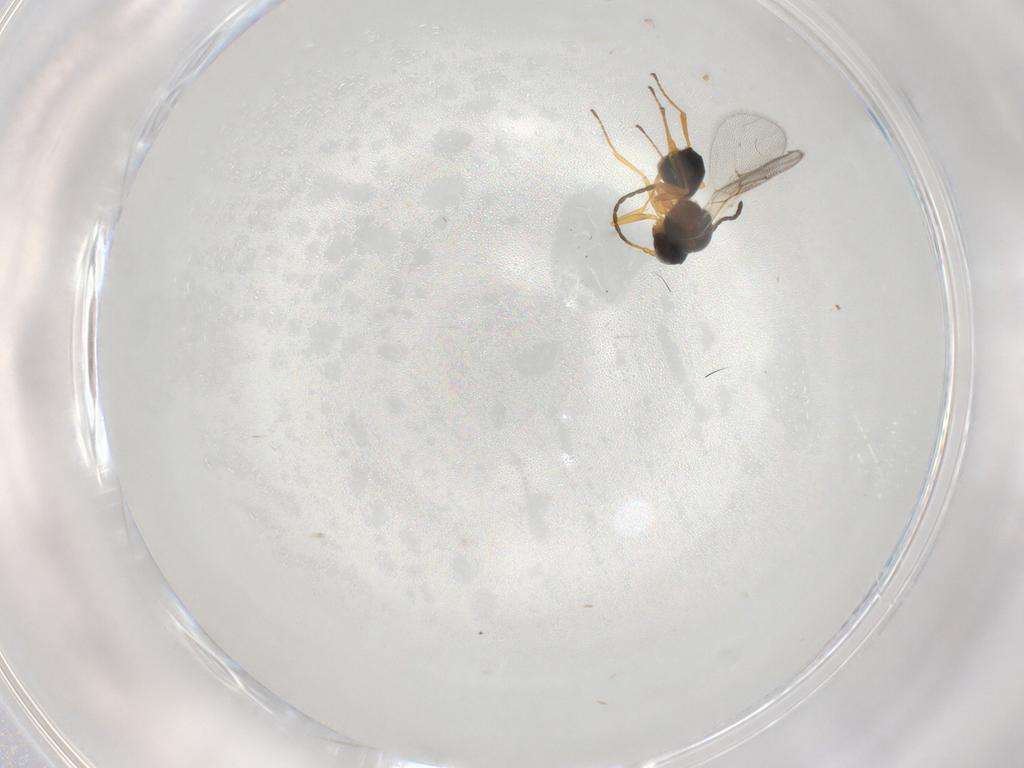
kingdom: Animalia
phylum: Arthropoda
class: Insecta
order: Hymenoptera
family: Figitidae
